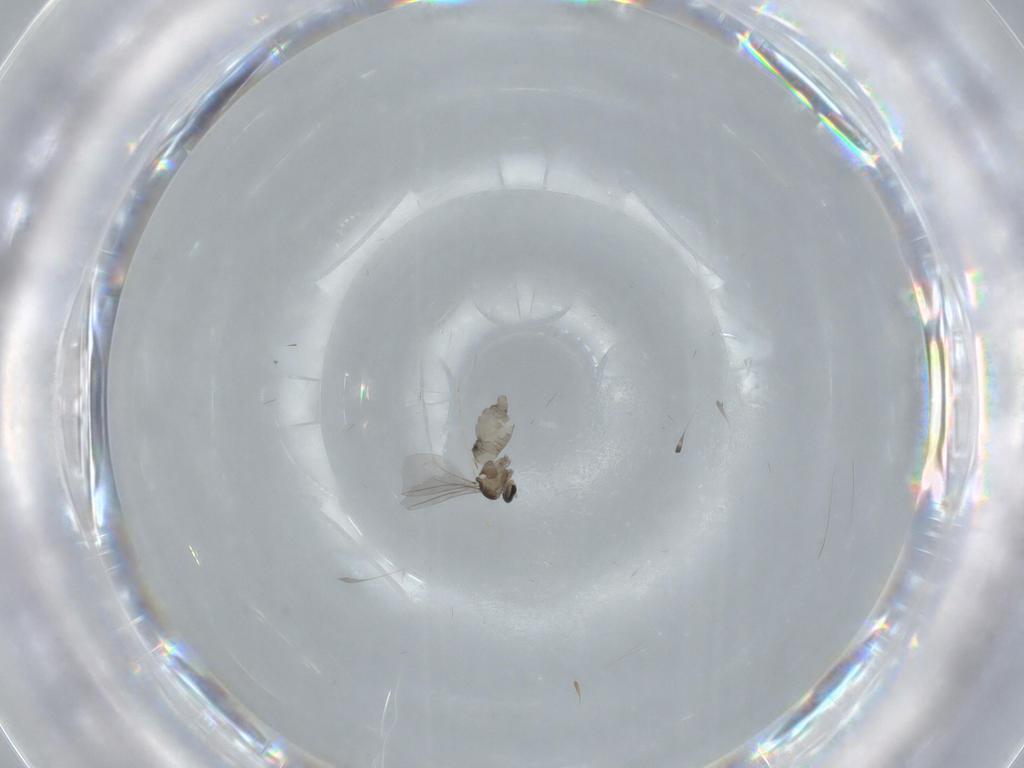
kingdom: Animalia
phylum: Arthropoda
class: Insecta
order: Diptera
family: Cecidomyiidae
